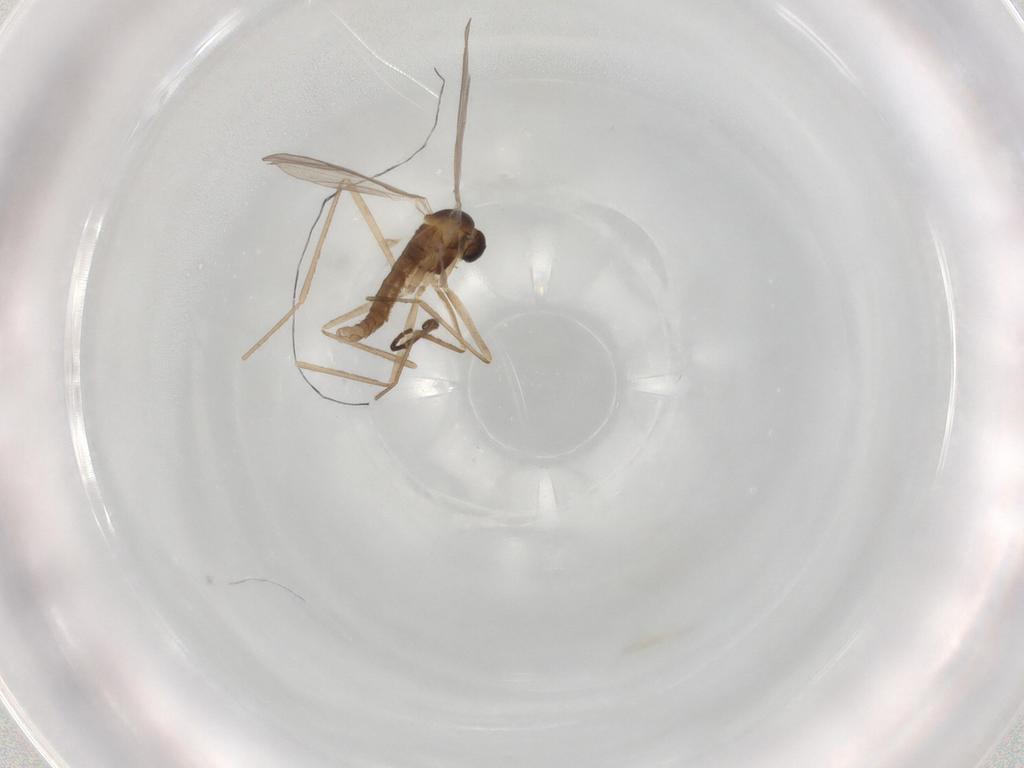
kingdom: Animalia
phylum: Arthropoda
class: Insecta
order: Diptera
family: Sciaridae
